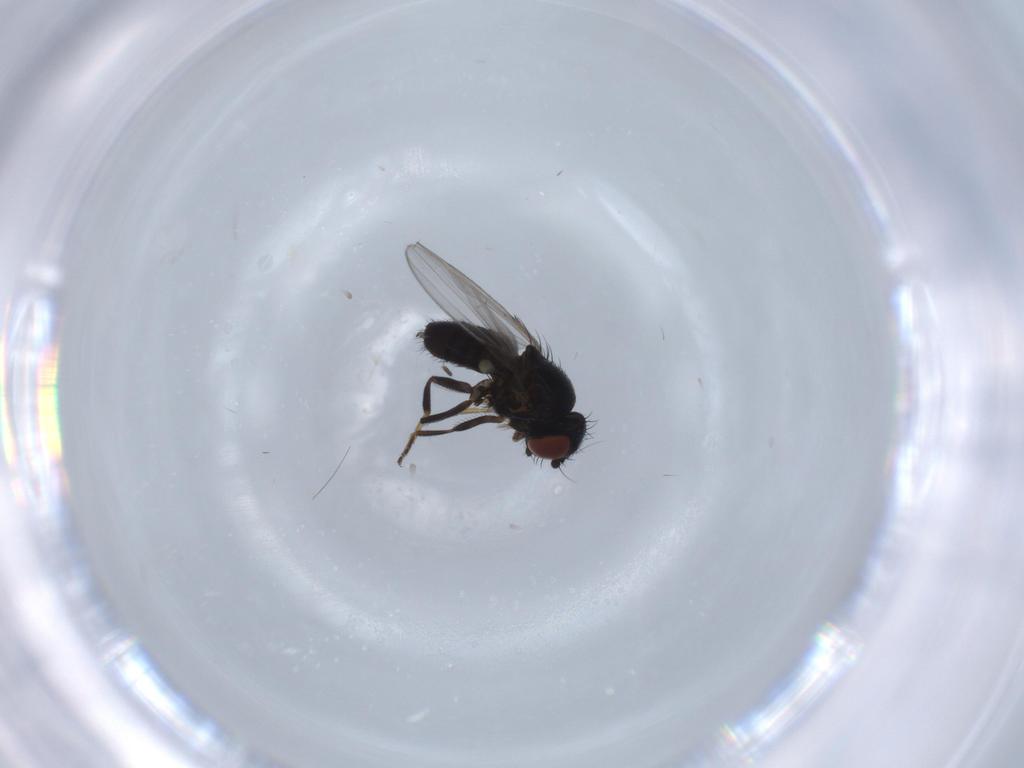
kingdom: Animalia
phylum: Arthropoda
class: Insecta
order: Diptera
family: Milichiidae
